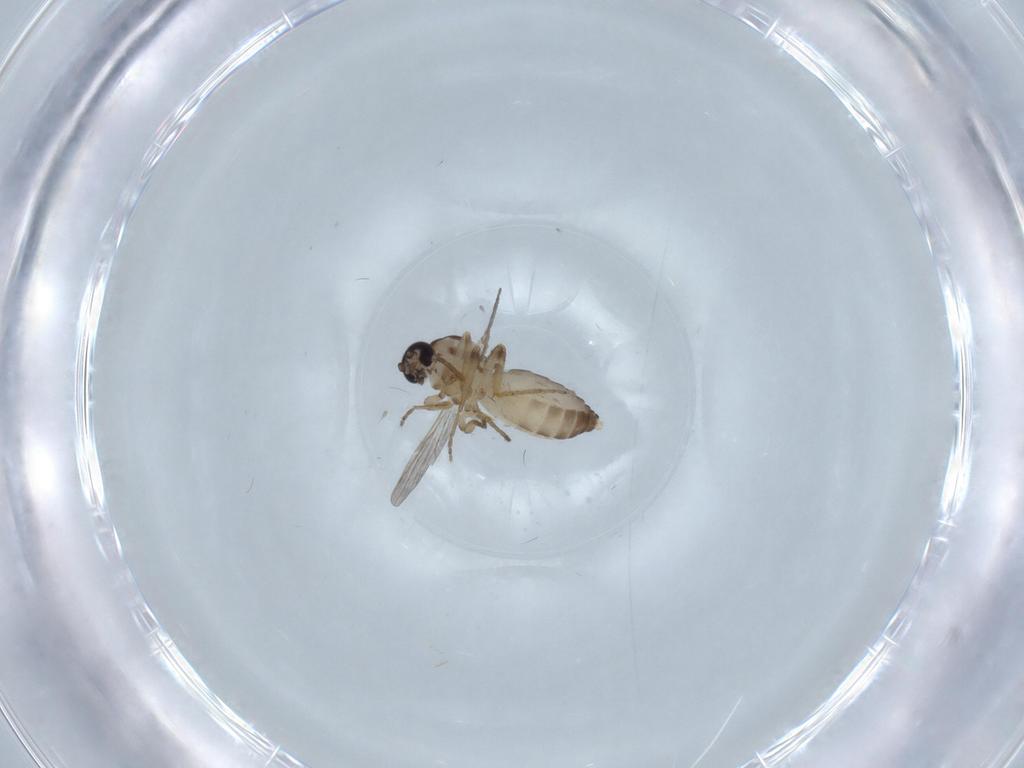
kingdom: Animalia
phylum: Arthropoda
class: Insecta
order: Diptera
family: Ceratopogonidae
